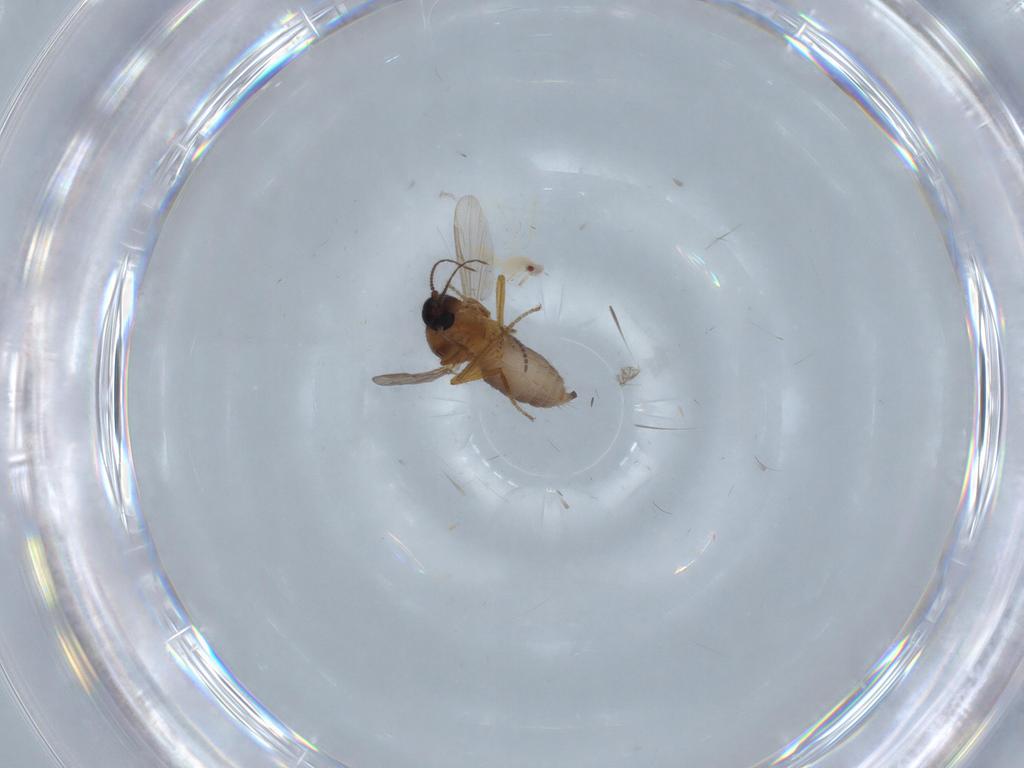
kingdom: Animalia
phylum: Arthropoda
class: Insecta
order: Diptera
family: Ceratopogonidae
